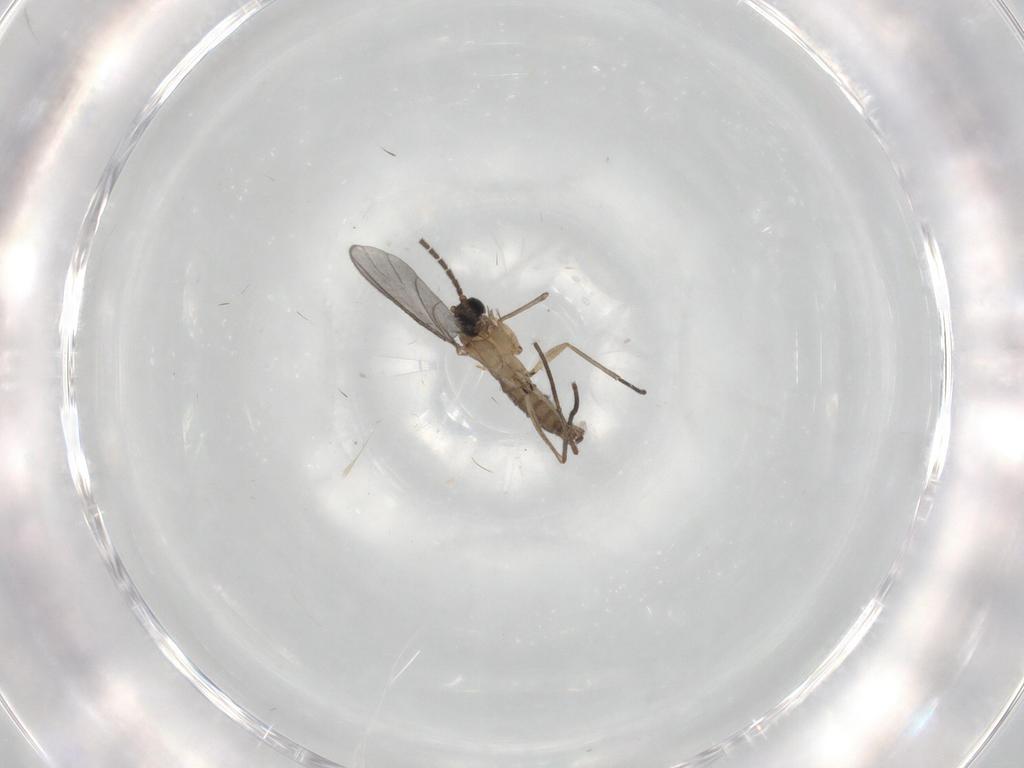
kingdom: Animalia
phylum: Arthropoda
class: Insecta
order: Diptera
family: Sciaridae
